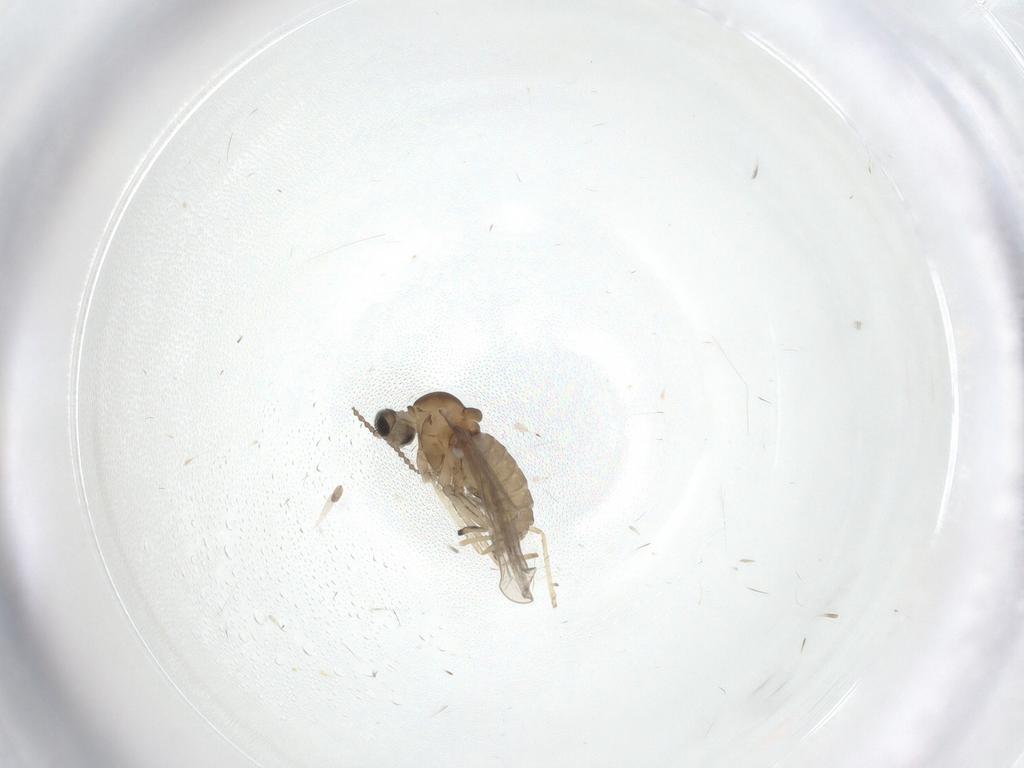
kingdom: Animalia
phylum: Arthropoda
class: Insecta
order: Diptera
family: Cecidomyiidae
